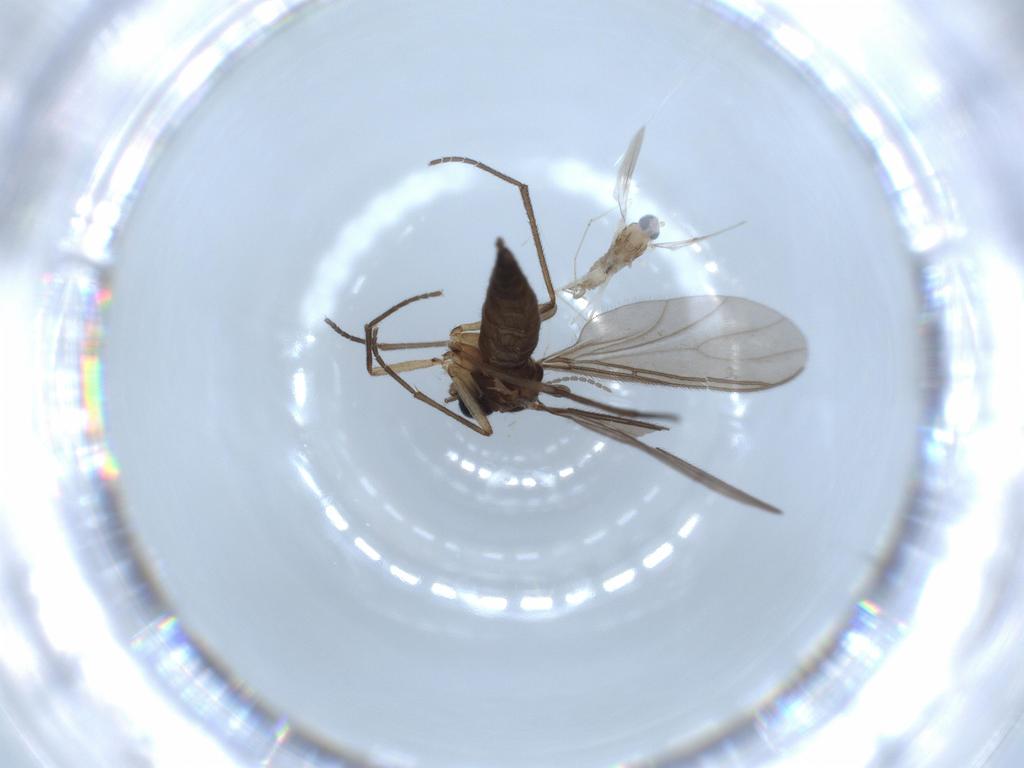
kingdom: Animalia
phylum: Arthropoda
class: Insecta
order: Diptera
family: Cecidomyiidae
